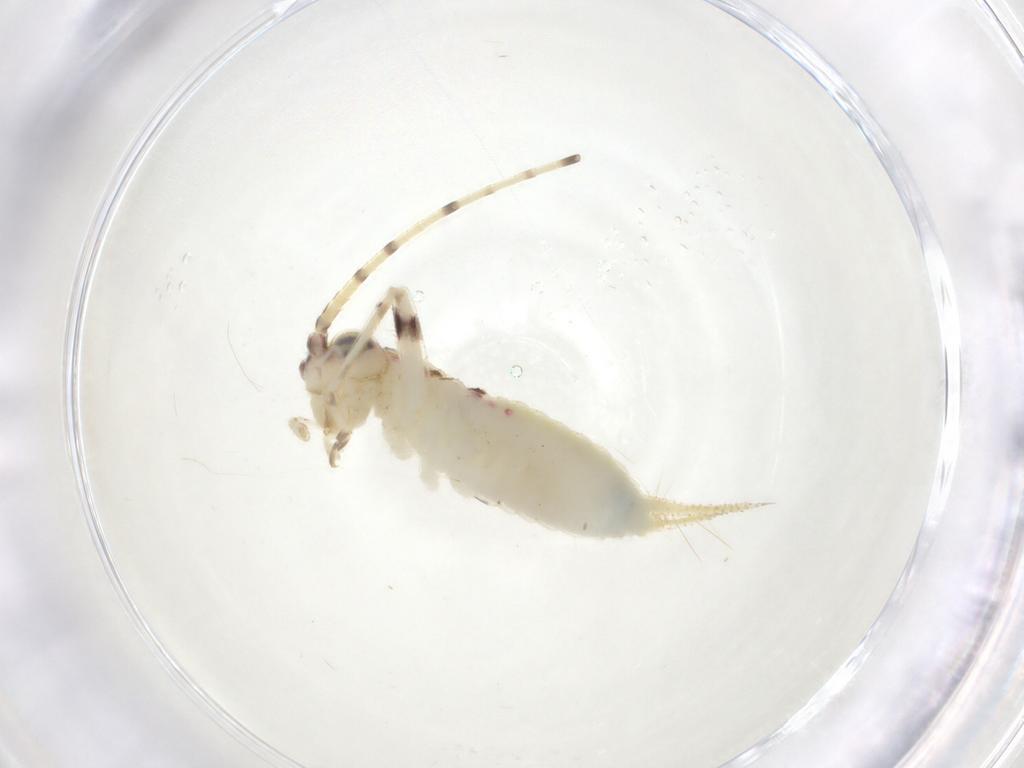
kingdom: Animalia
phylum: Arthropoda
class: Insecta
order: Orthoptera
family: Trigonidiidae
